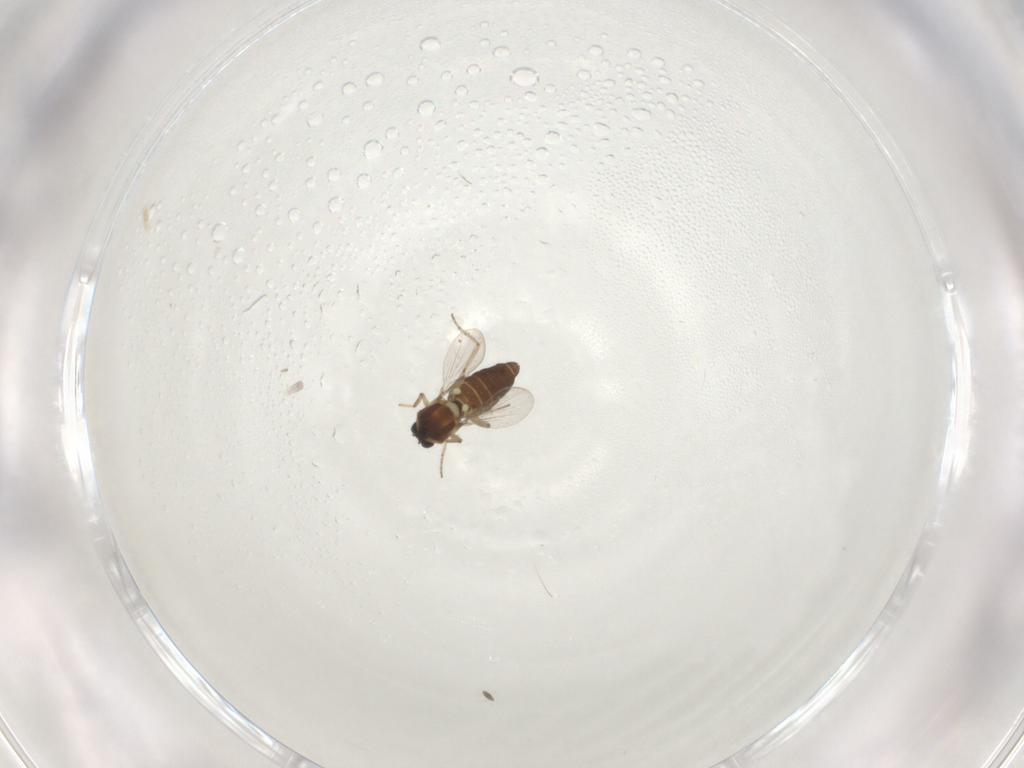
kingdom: Animalia
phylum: Arthropoda
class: Insecta
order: Diptera
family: Ceratopogonidae
